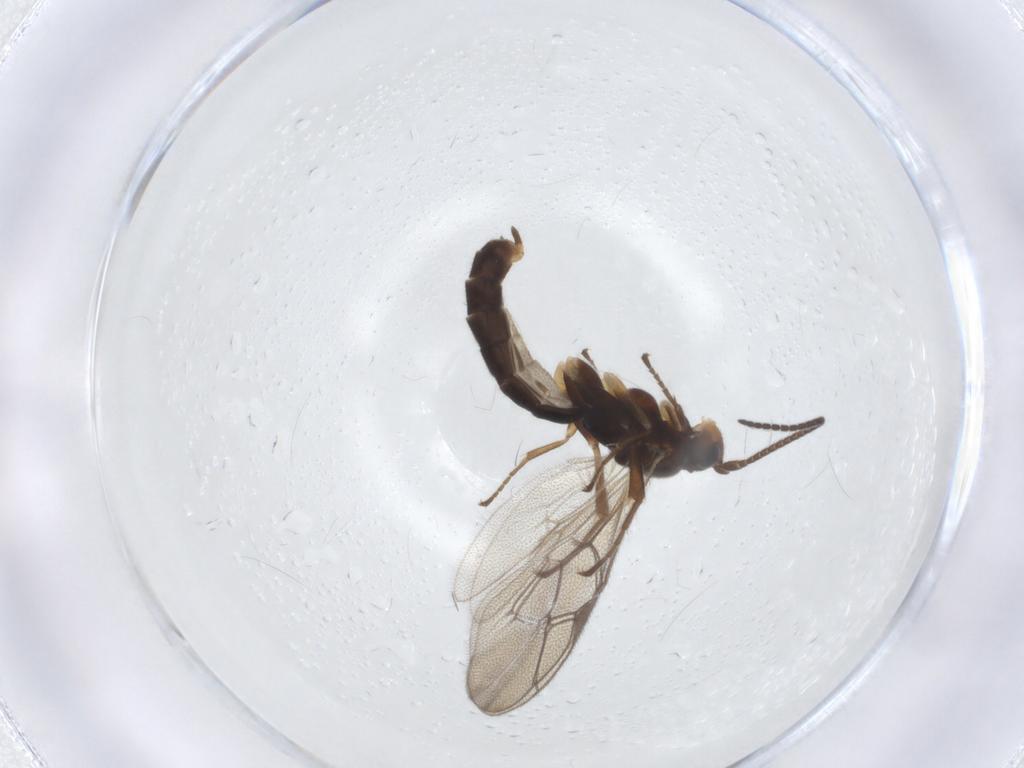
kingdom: Animalia
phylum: Arthropoda
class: Insecta
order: Hymenoptera
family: Ichneumonidae
